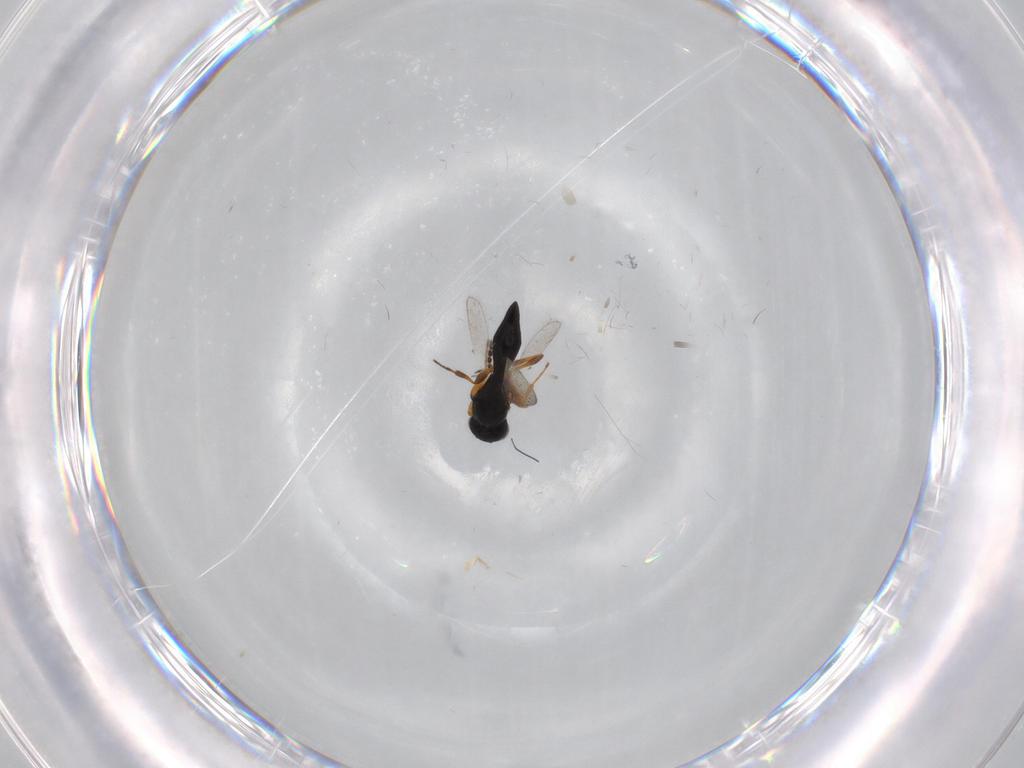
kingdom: Animalia
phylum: Arthropoda
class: Insecta
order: Hymenoptera
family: Platygastridae
